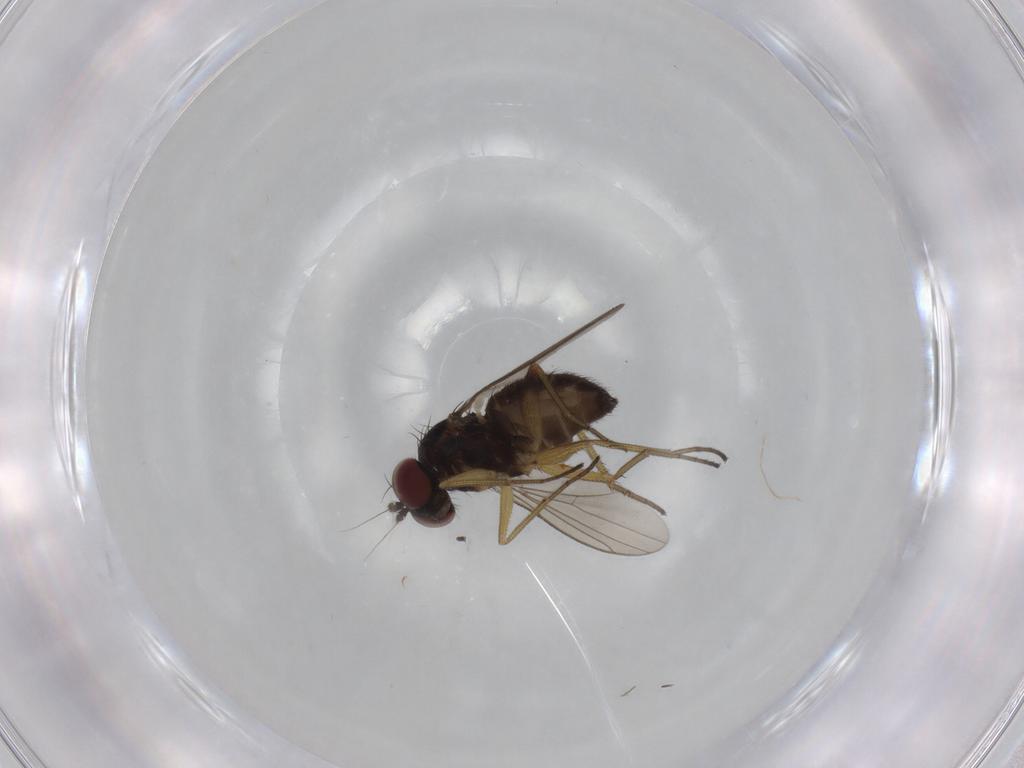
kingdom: Animalia
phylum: Arthropoda
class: Insecta
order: Diptera
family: Dolichopodidae
